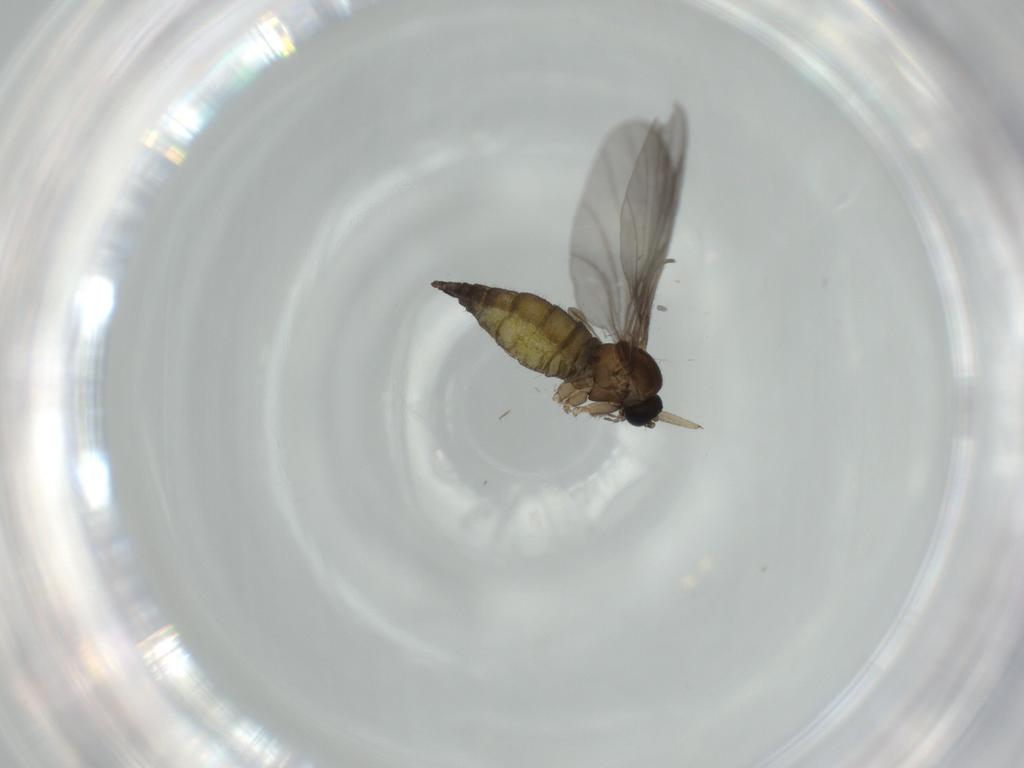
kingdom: Animalia
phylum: Arthropoda
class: Insecta
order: Diptera
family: Sciaridae
